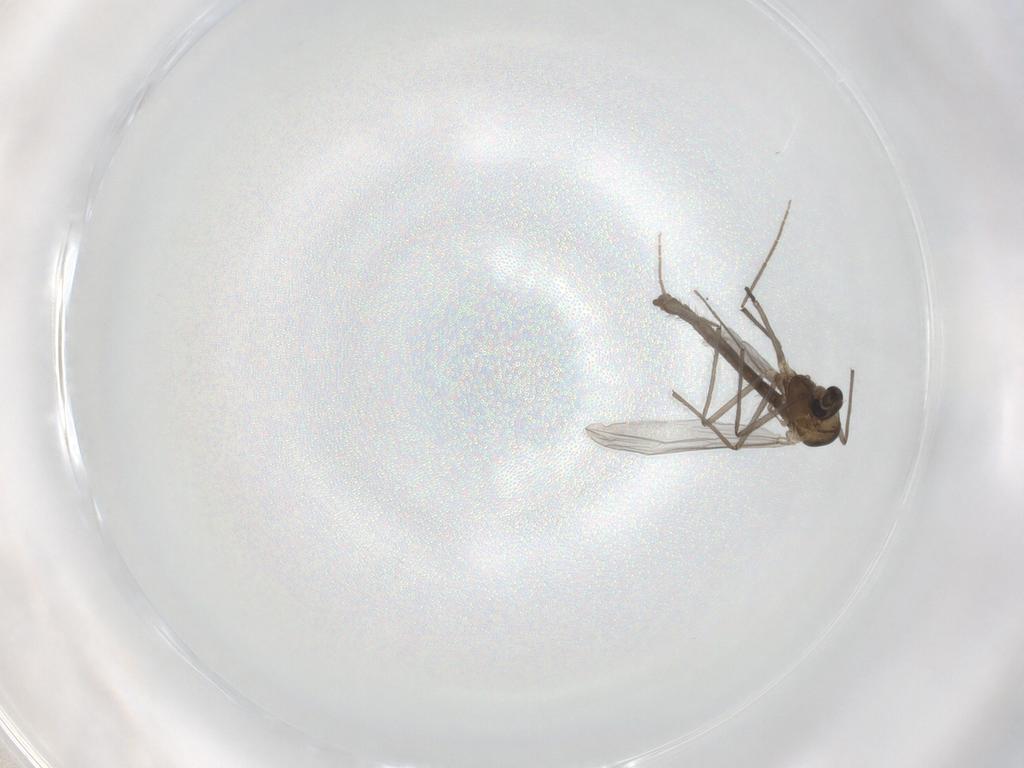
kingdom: Animalia
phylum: Arthropoda
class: Insecta
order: Diptera
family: Chironomidae
